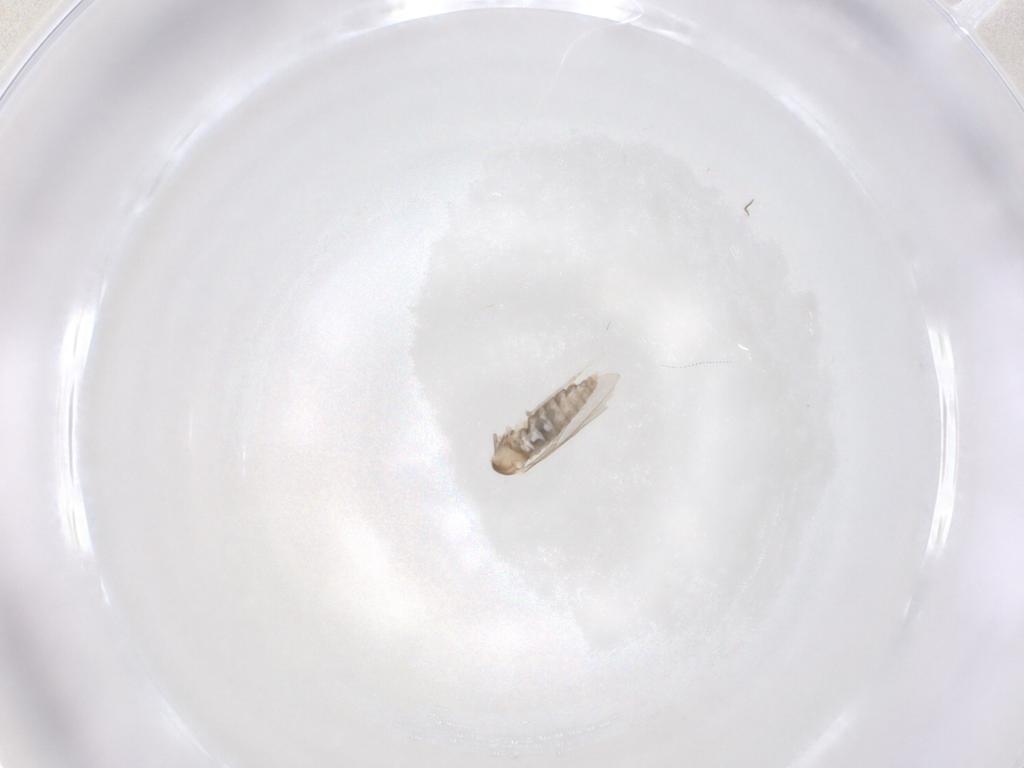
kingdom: Animalia
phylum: Arthropoda
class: Insecta
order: Diptera
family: Cecidomyiidae
